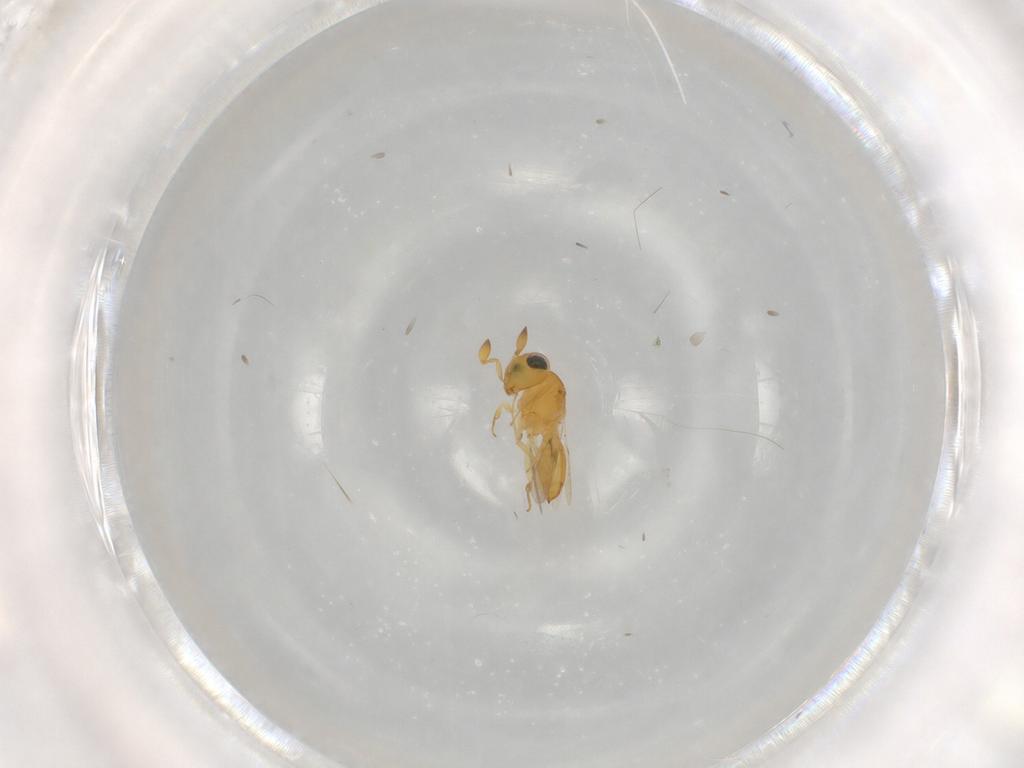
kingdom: Animalia
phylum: Arthropoda
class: Insecta
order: Hymenoptera
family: Scelionidae
